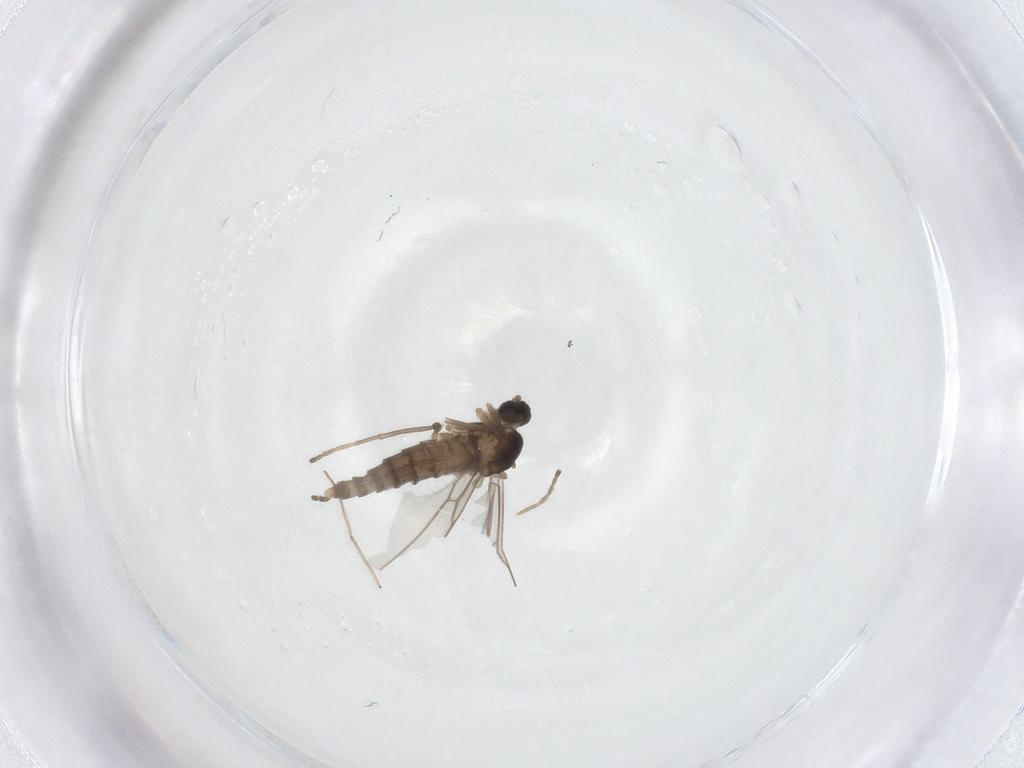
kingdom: Animalia
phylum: Arthropoda
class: Insecta
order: Diptera
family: Cecidomyiidae
